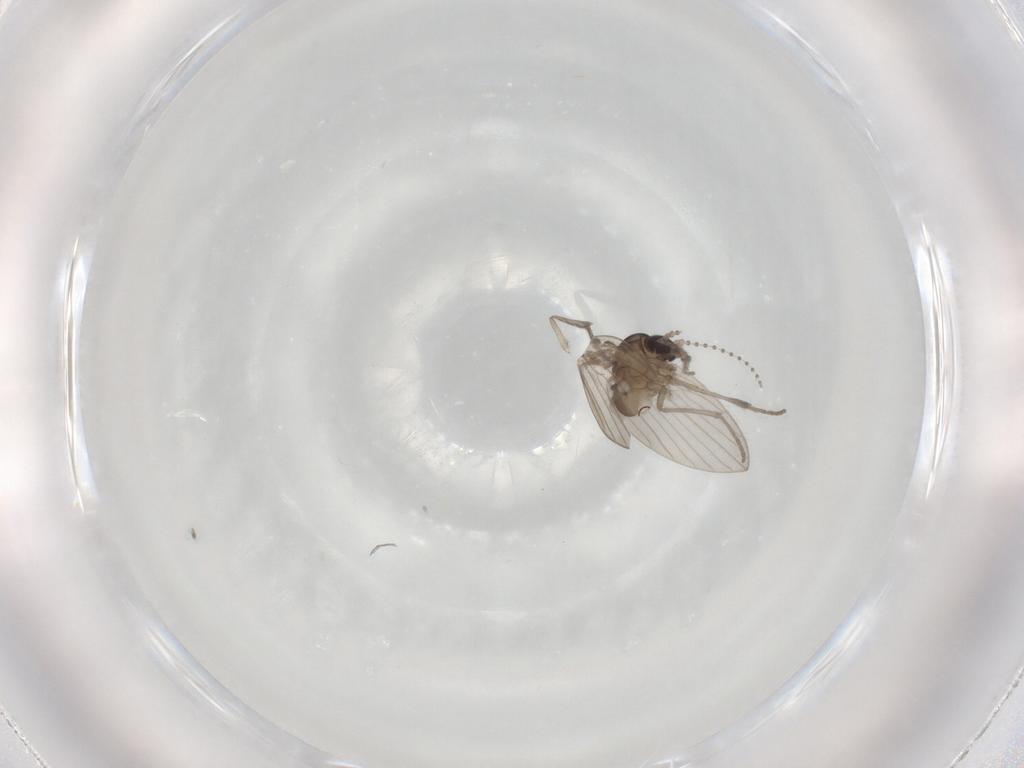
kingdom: Animalia
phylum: Arthropoda
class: Insecta
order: Diptera
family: Psychodidae
